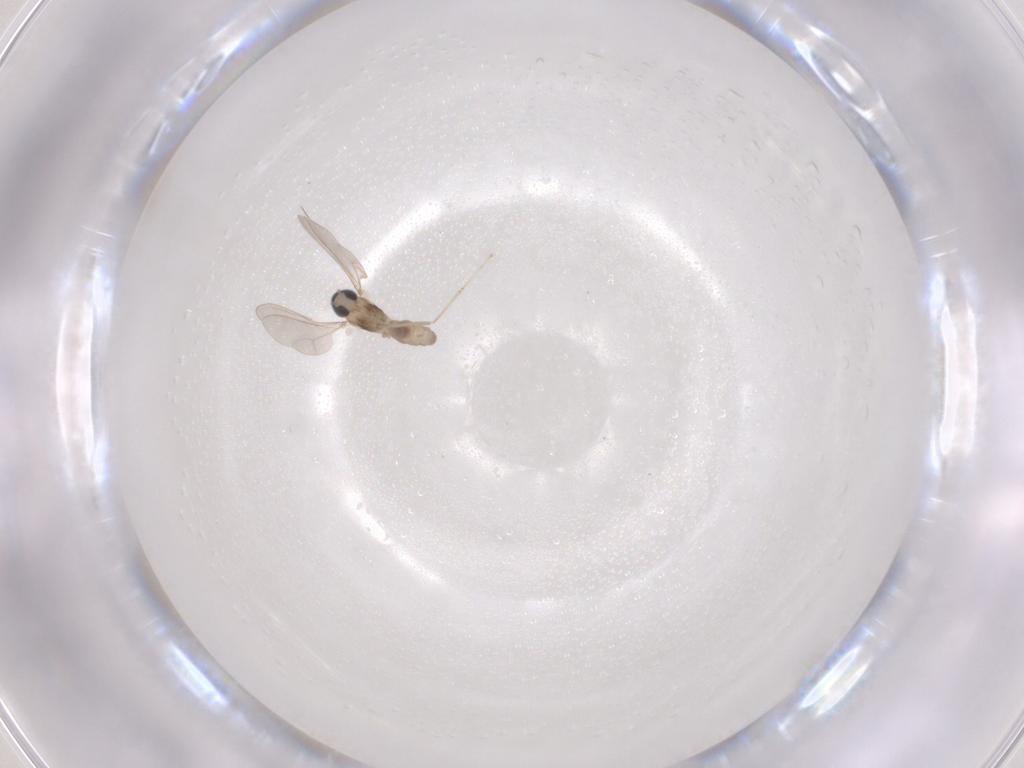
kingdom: Animalia
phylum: Arthropoda
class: Insecta
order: Diptera
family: Cecidomyiidae
